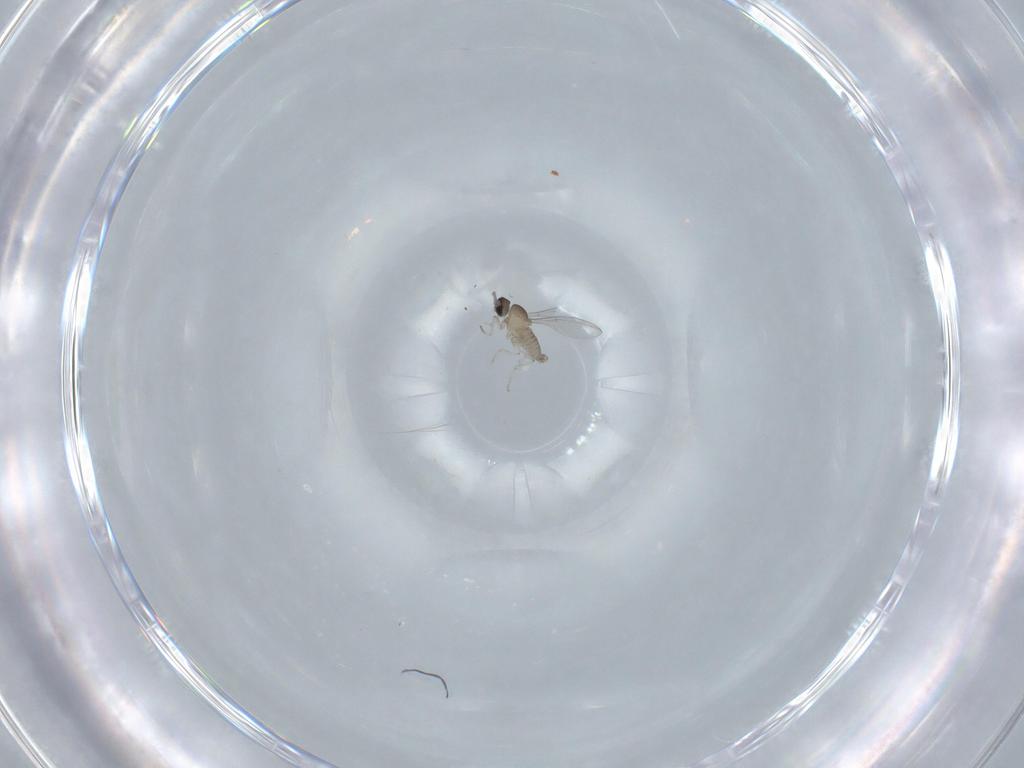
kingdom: Animalia
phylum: Arthropoda
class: Insecta
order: Diptera
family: Cecidomyiidae
